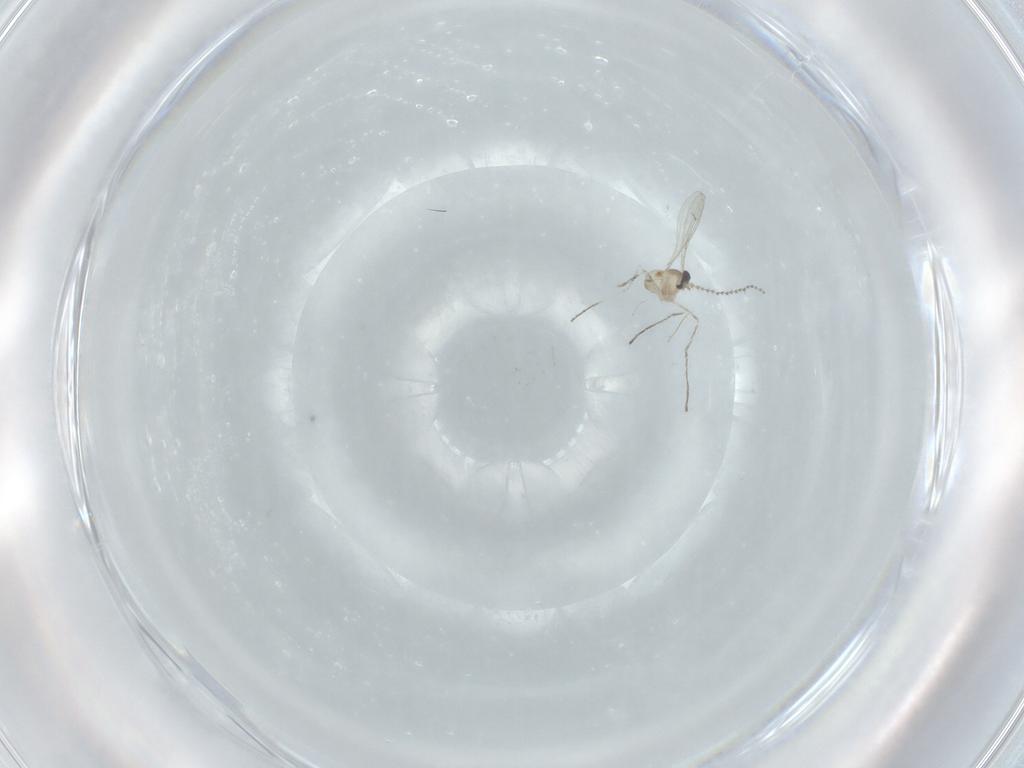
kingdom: Animalia
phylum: Arthropoda
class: Insecta
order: Diptera
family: Cecidomyiidae
